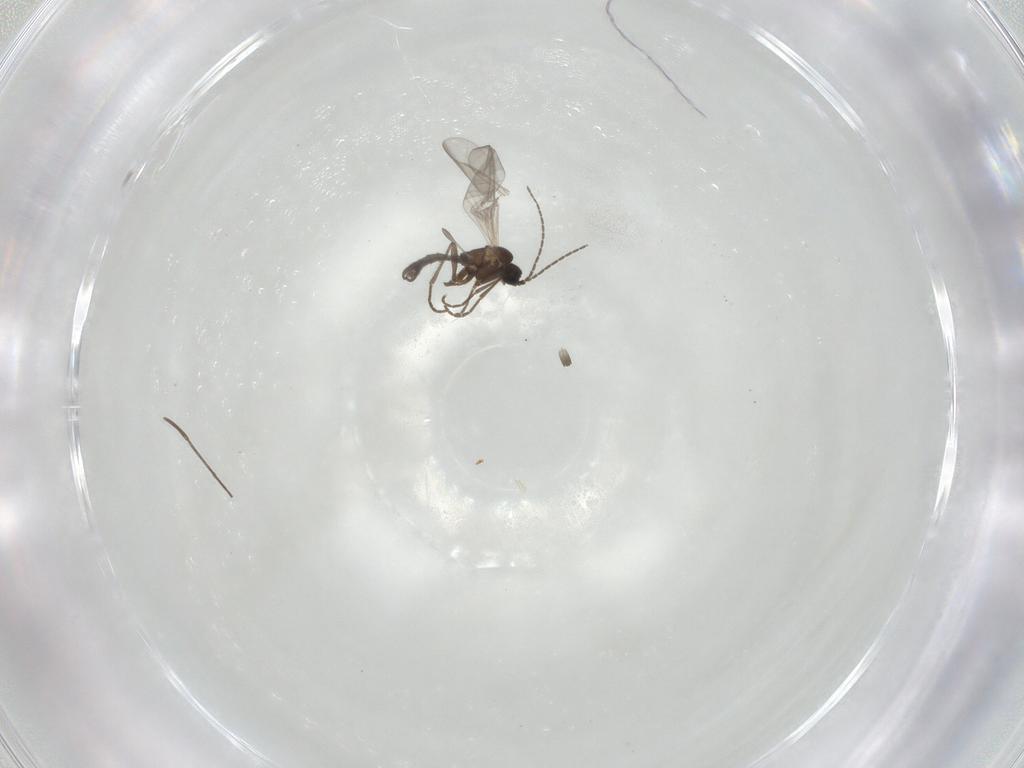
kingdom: Animalia
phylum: Arthropoda
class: Insecta
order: Diptera
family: Sciaridae
